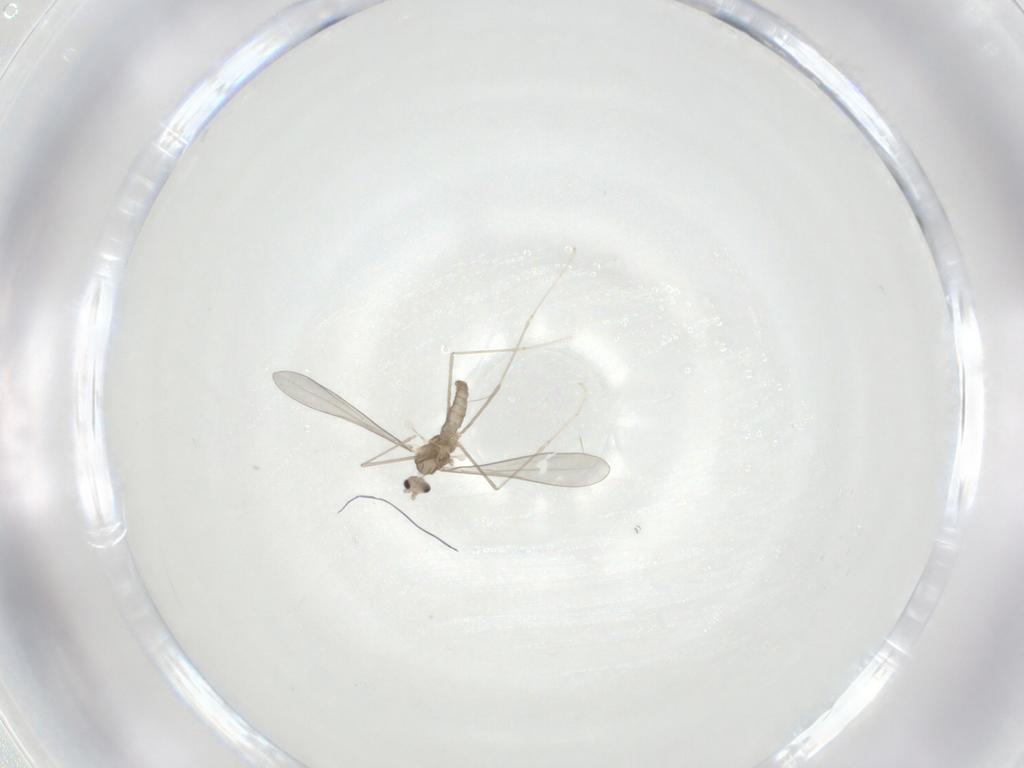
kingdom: Animalia
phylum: Arthropoda
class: Insecta
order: Diptera
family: Cecidomyiidae
